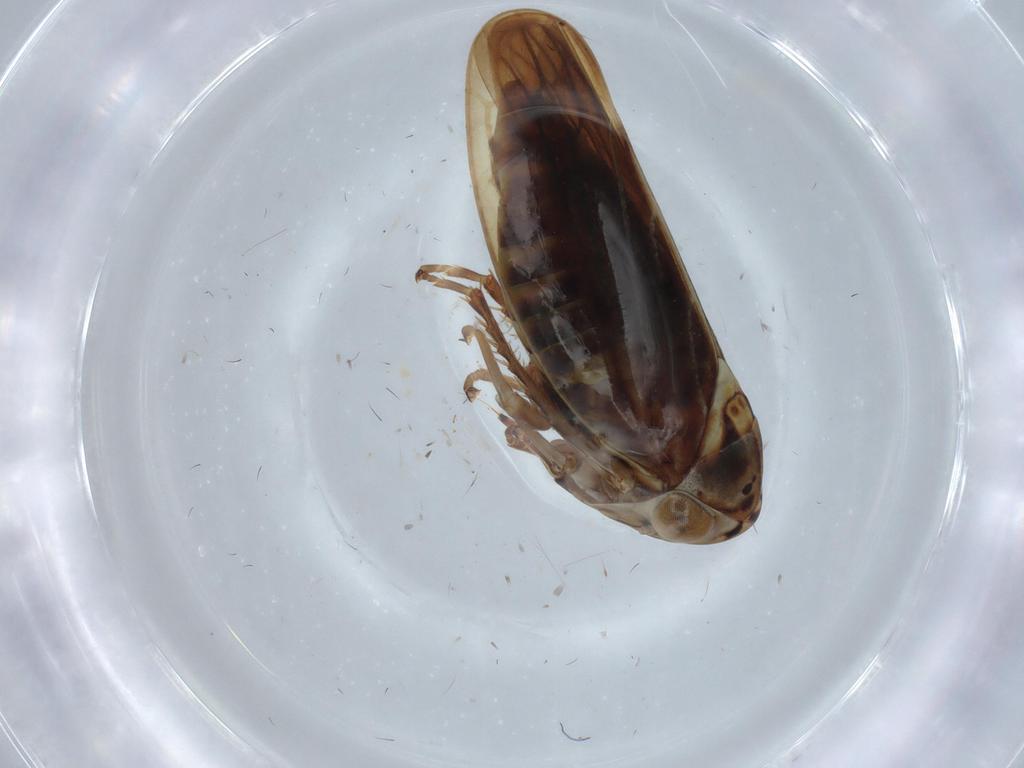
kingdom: Animalia
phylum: Arthropoda
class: Insecta
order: Hemiptera
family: Cicadellidae
